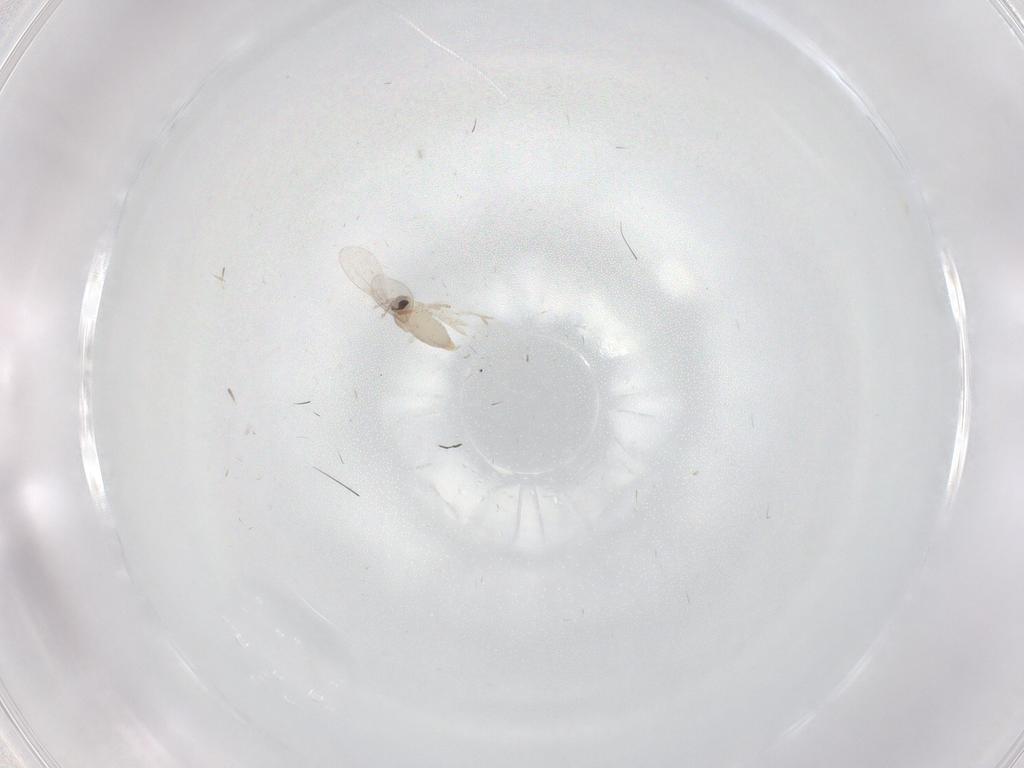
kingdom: Animalia
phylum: Arthropoda
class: Insecta
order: Diptera
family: Cecidomyiidae
